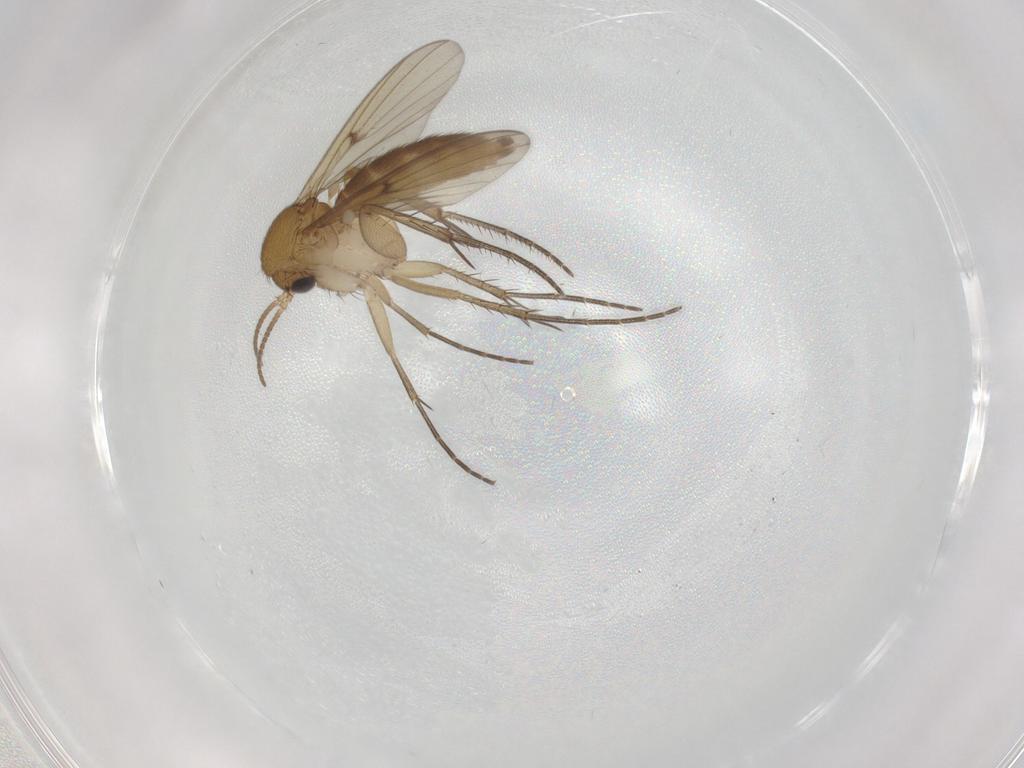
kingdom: Animalia
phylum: Arthropoda
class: Insecta
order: Diptera
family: Mycetophilidae
